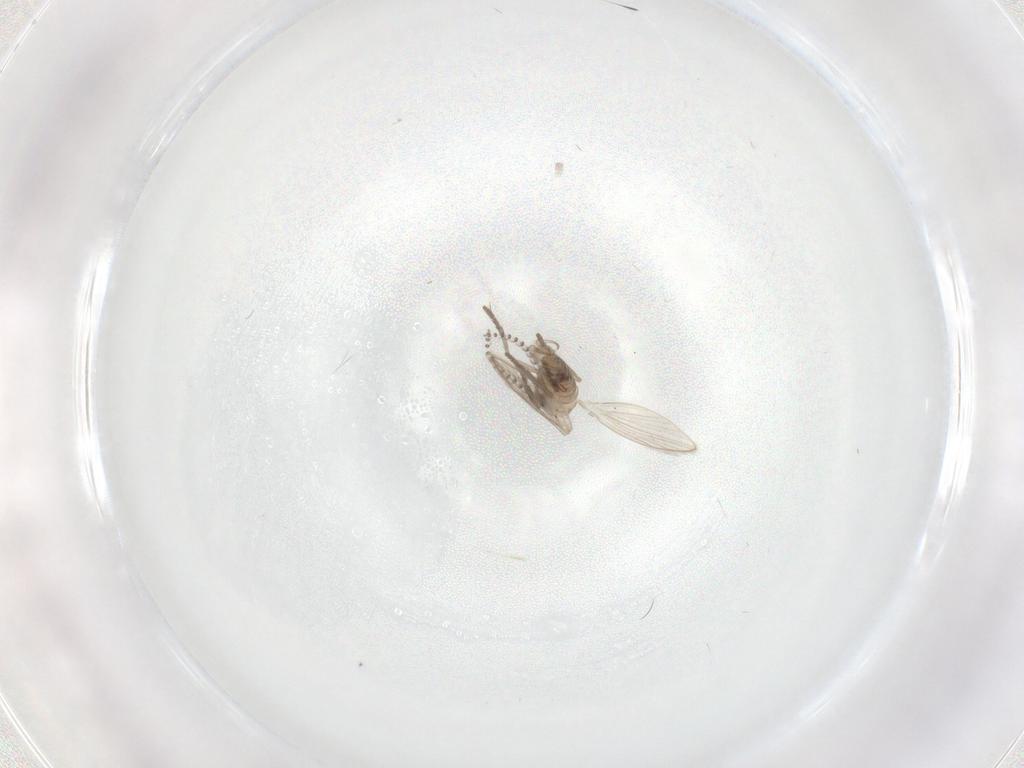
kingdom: Animalia
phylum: Arthropoda
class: Insecta
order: Diptera
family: Psychodidae
